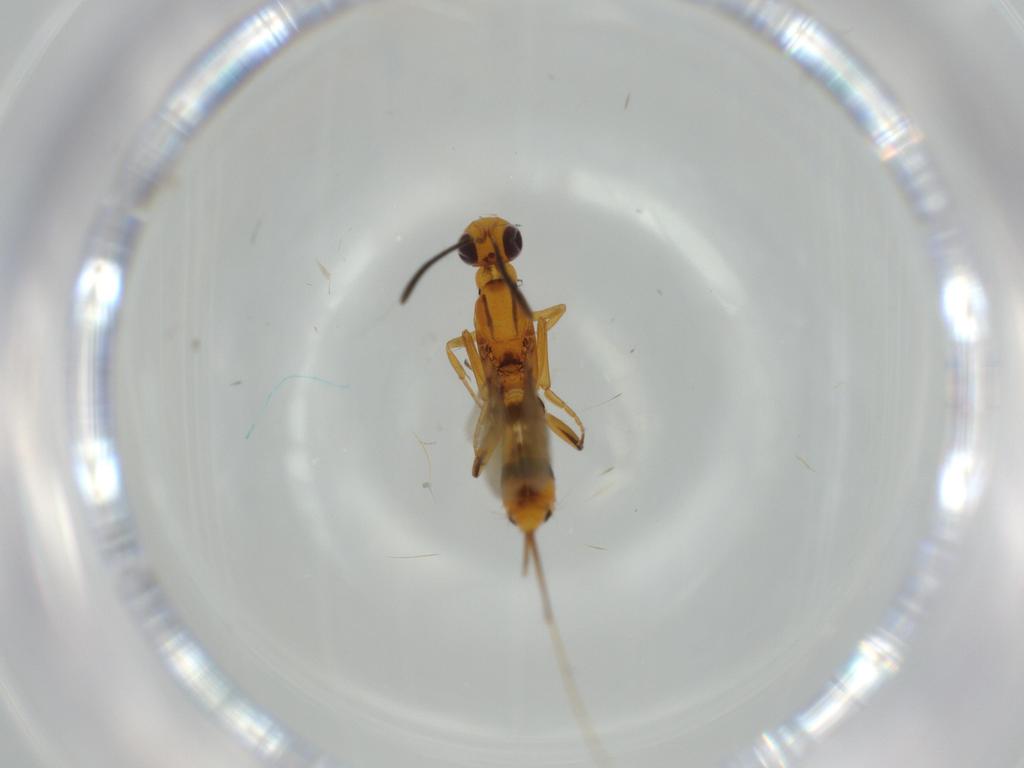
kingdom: Animalia
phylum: Arthropoda
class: Insecta
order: Hymenoptera
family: Eupelmidae
